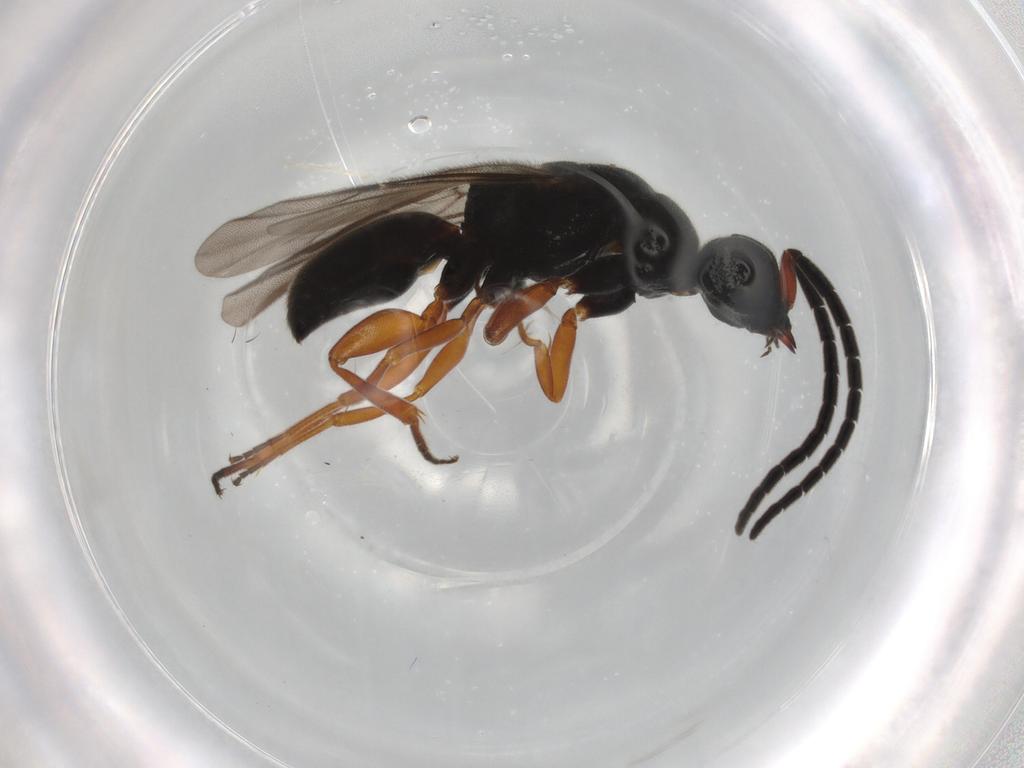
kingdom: Animalia
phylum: Arthropoda
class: Insecta
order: Hymenoptera
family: Chrysididae
